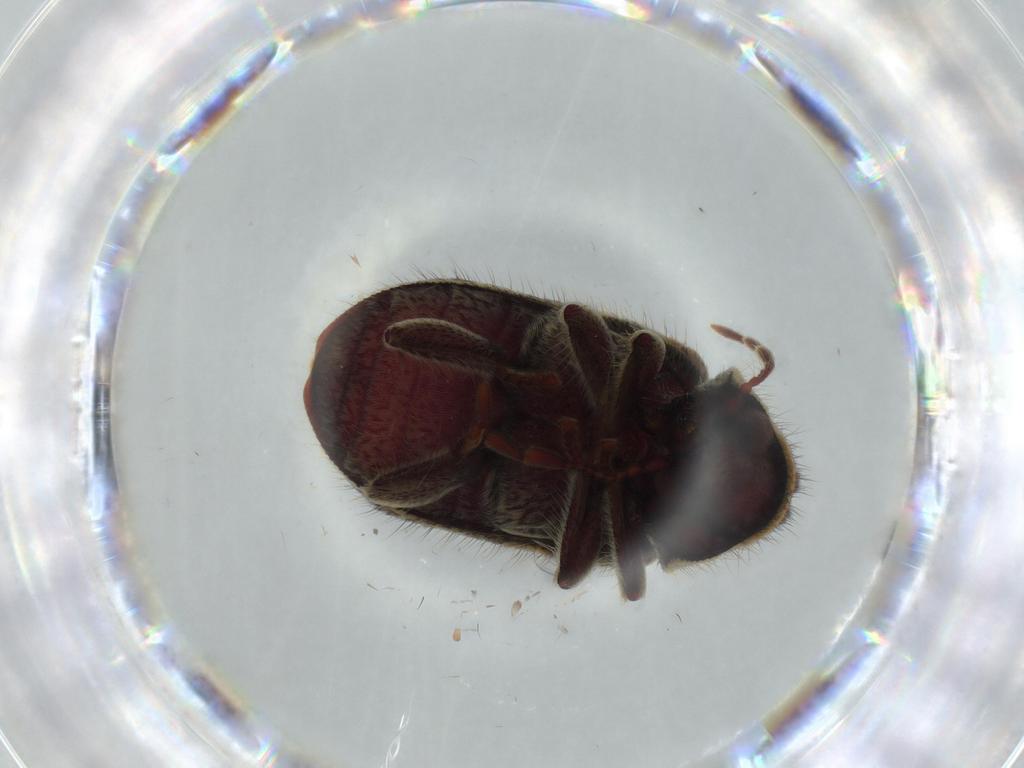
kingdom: Animalia
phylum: Arthropoda
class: Insecta
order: Coleoptera
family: Ptinidae
